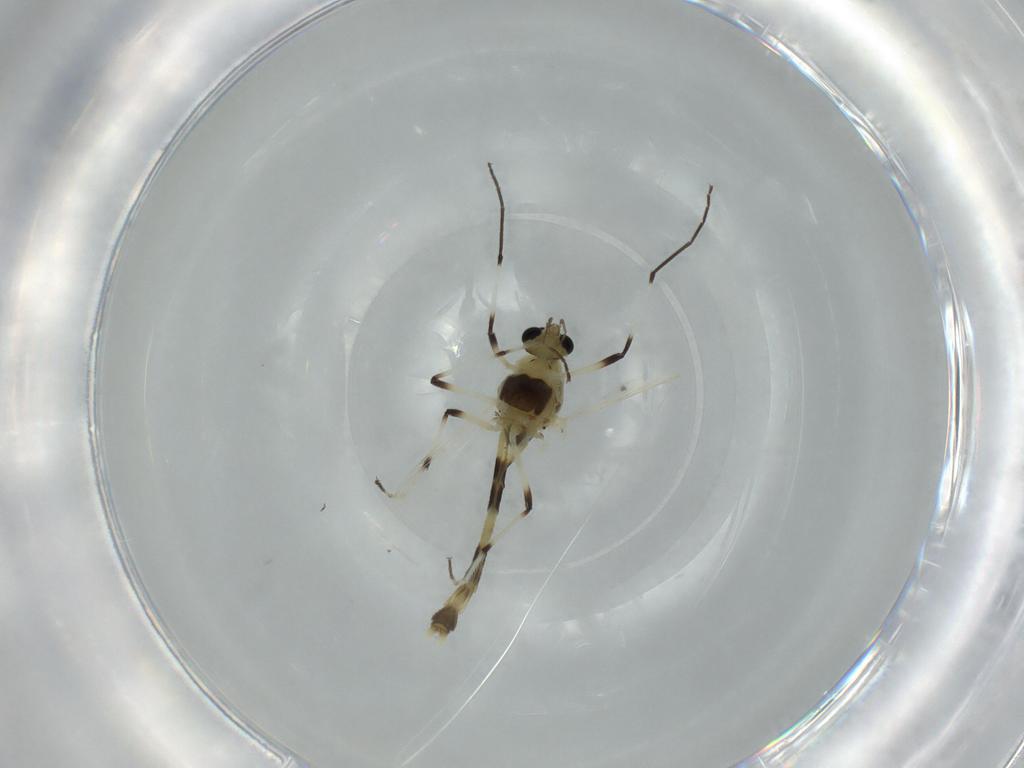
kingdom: Animalia
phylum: Arthropoda
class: Insecta
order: Diptera
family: Chironomidae
